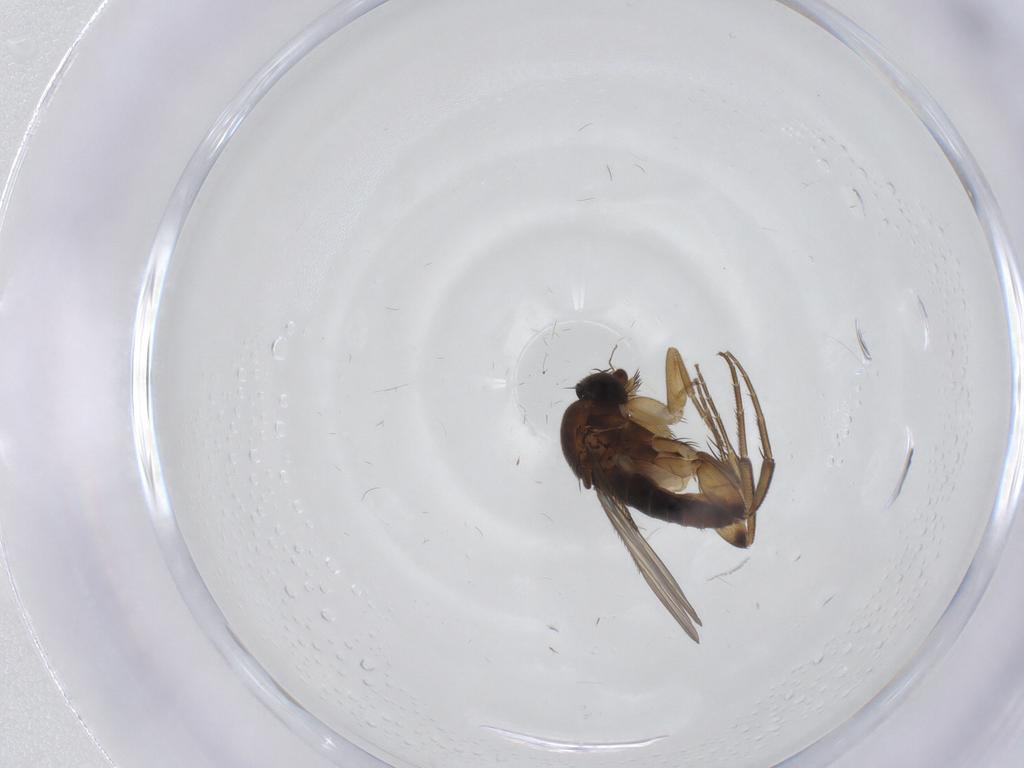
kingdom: Animalia
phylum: Arthropoda
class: Insecta
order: Diptera
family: Phoridae
